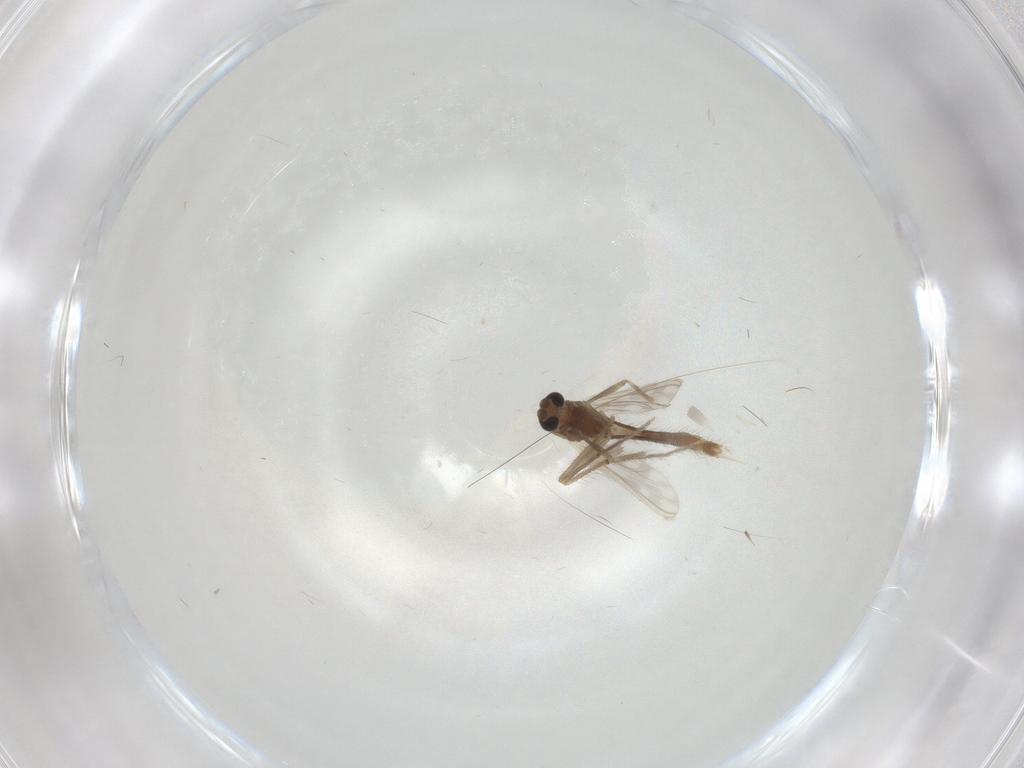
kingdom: Animalia
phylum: Arthropoda
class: Insecta
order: Diptera
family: Chironomidae
